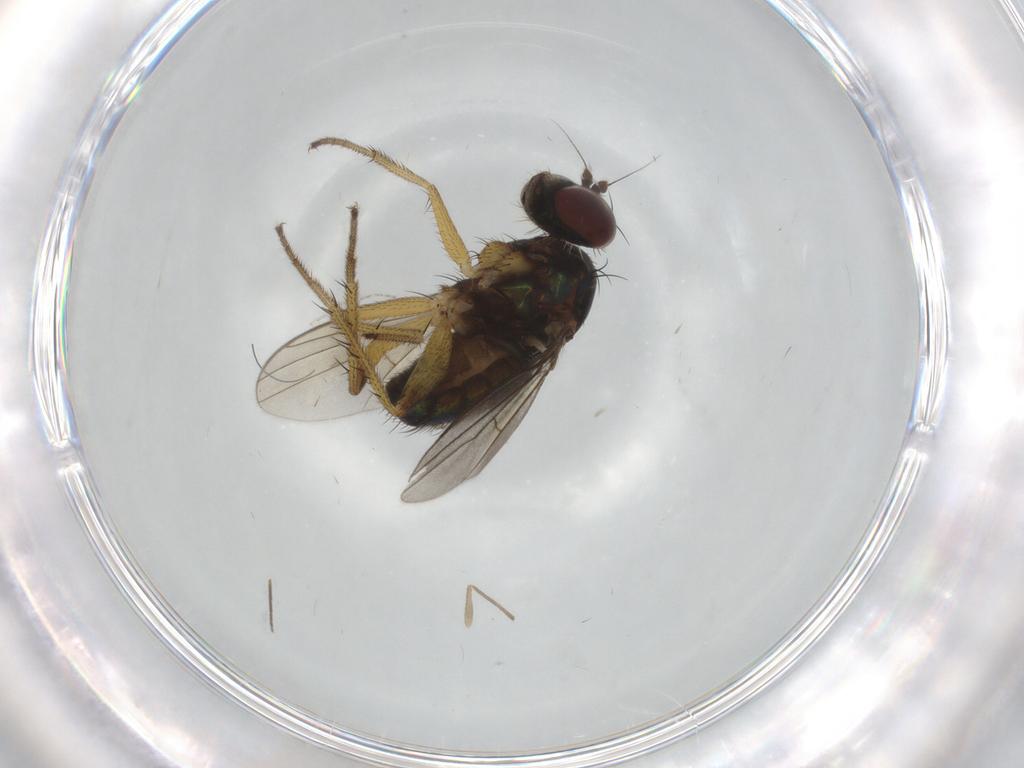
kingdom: Animalia
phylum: Arthropoda
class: Insecta
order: Diptera
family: Dolichopodidae
